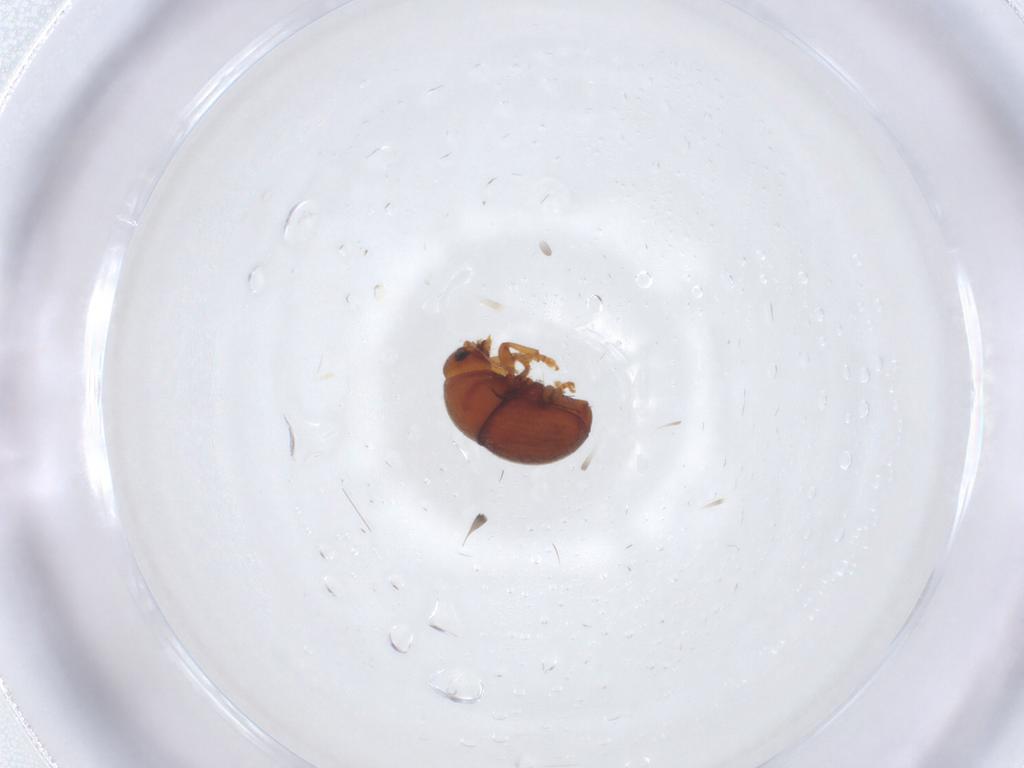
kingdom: Animalia
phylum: Arthropoda
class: Insecta
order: Coleoptera
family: Scarabaeidae
